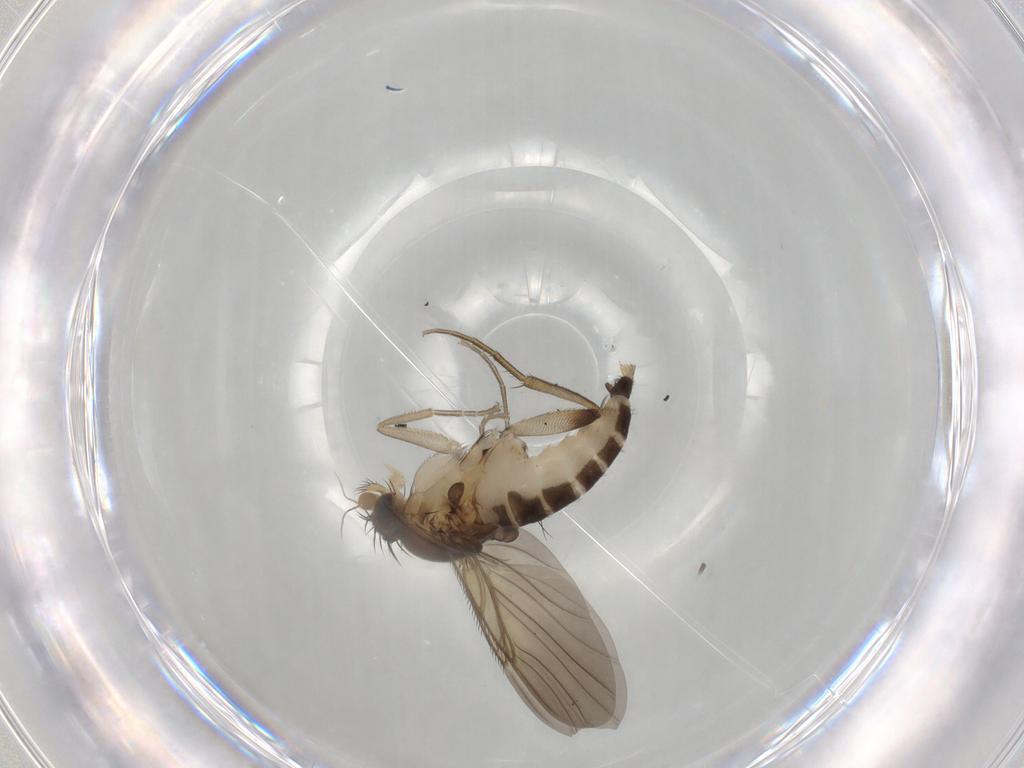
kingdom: Animalia
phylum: Arthropoda
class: Insecta
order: Diptera
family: Phoridae
